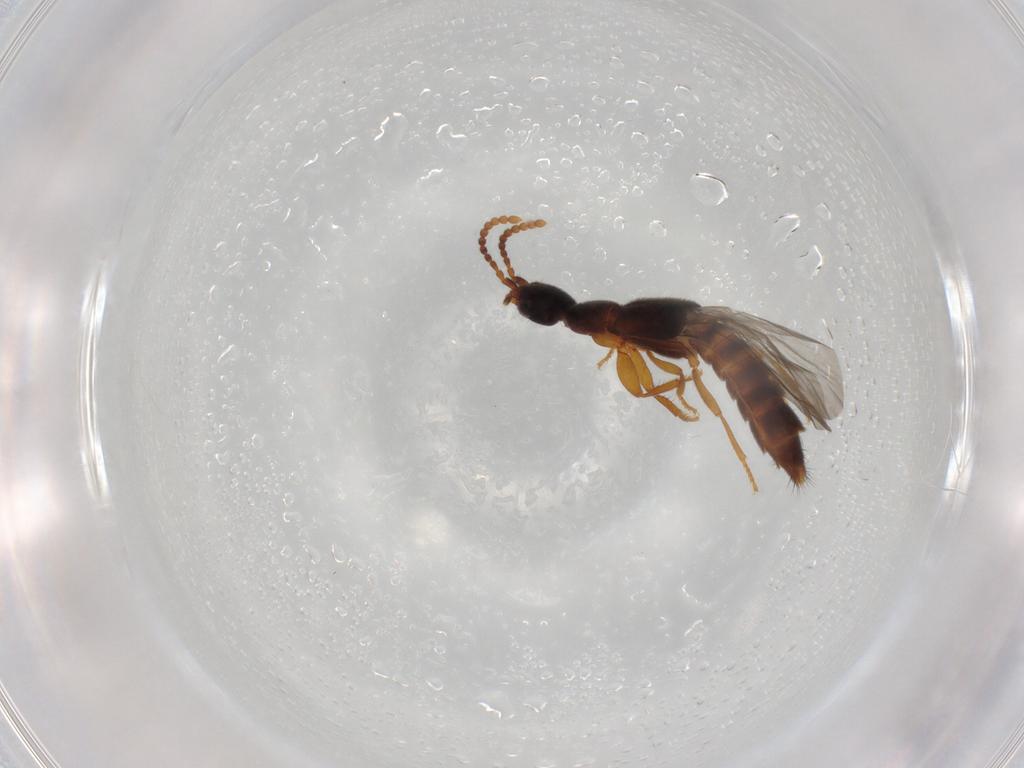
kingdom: Animalia
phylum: Arthropoda
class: Insecta
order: Coleoptera
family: Staphylinidae
